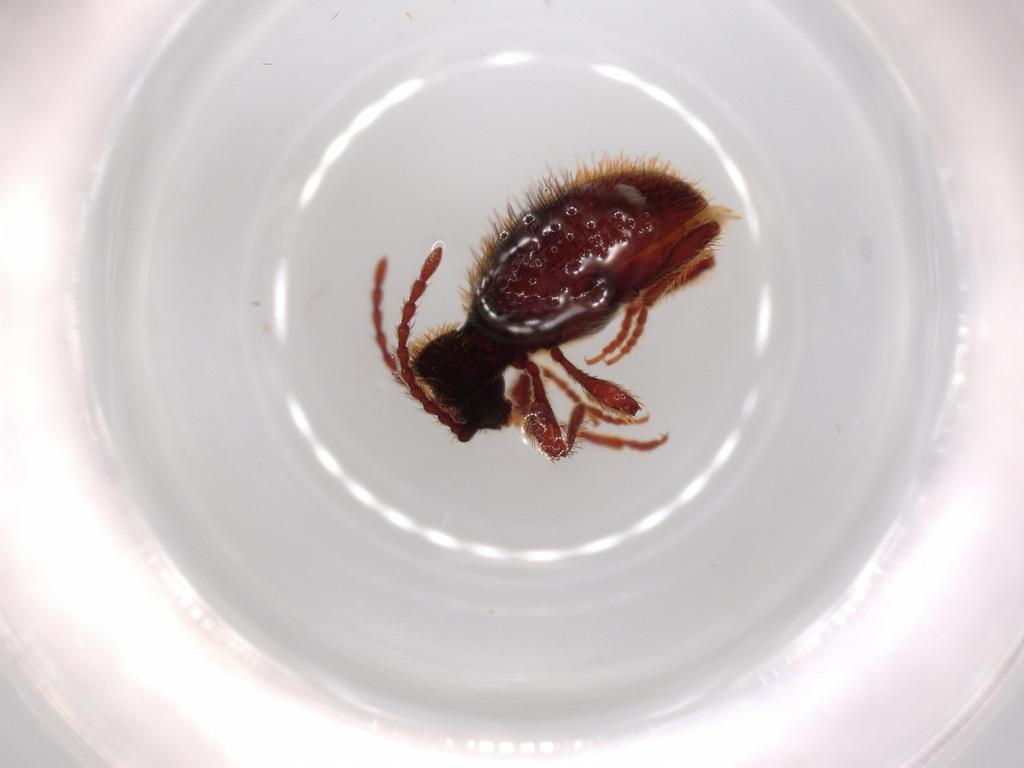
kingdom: Animalia
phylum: Arthropoda
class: Insecta
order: Coleoptera
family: Ptinidae
